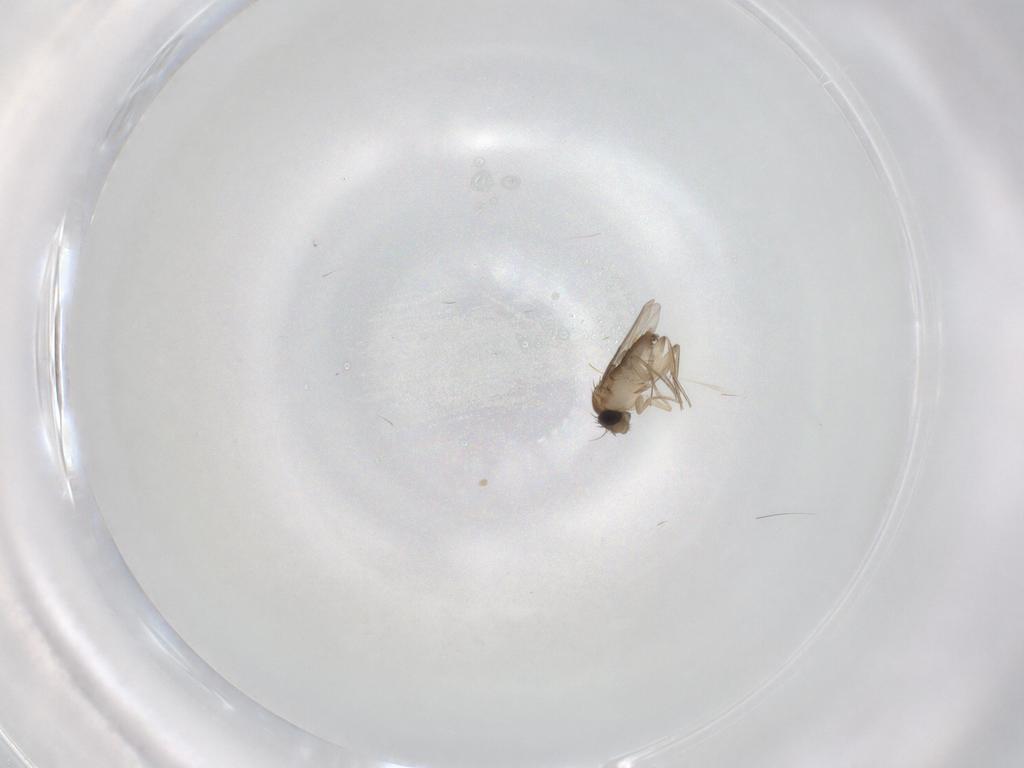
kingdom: Animalia
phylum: Arthropoda
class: Insecta
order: Diptera
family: Phoridae
